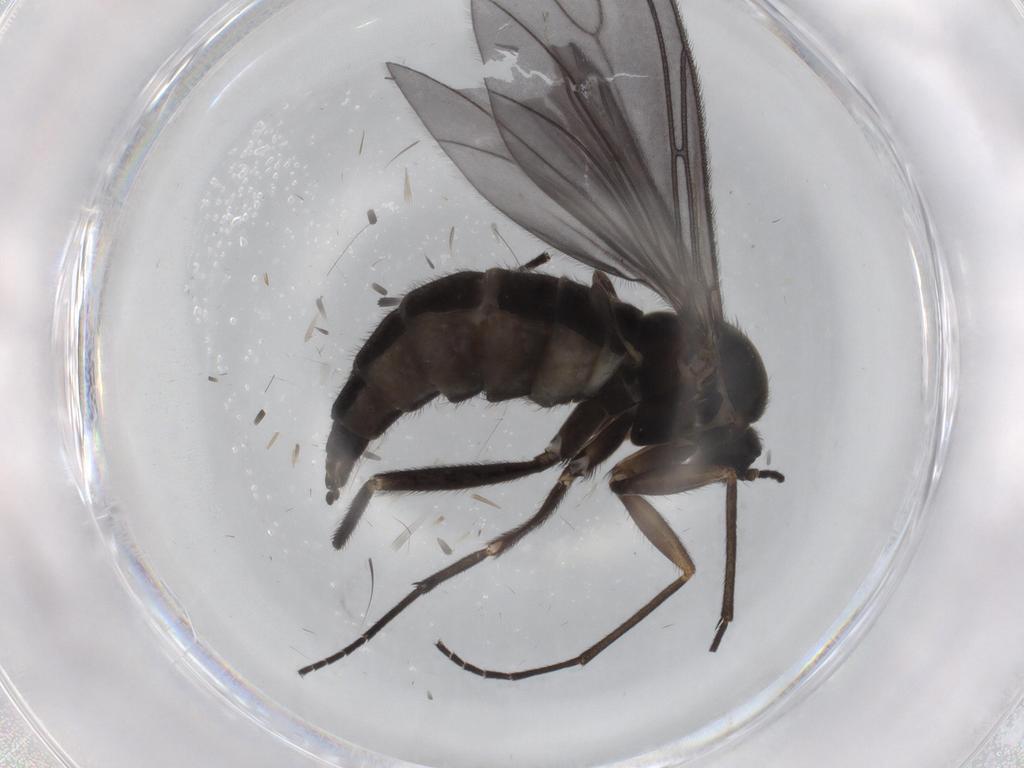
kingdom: Animalia
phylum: Arthropoda
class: Insecta
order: Diptera
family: Sciaridae
